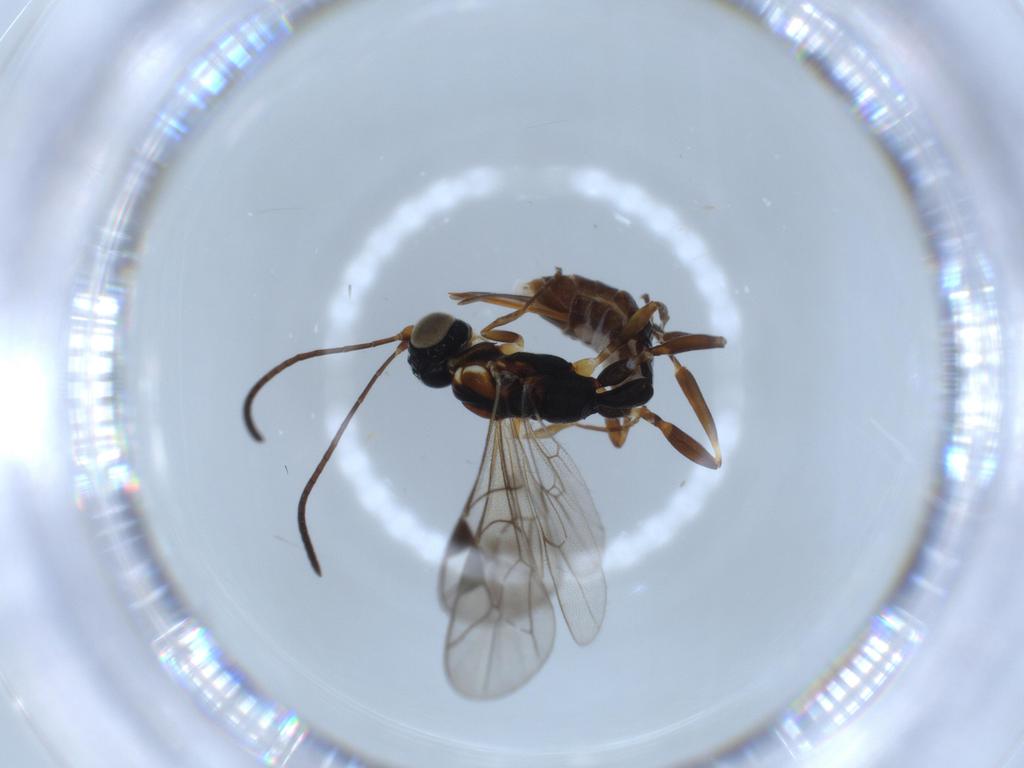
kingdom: Animalia
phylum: Arthropoda
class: Insecta
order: Hymenoptera
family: Ichneumonidae
